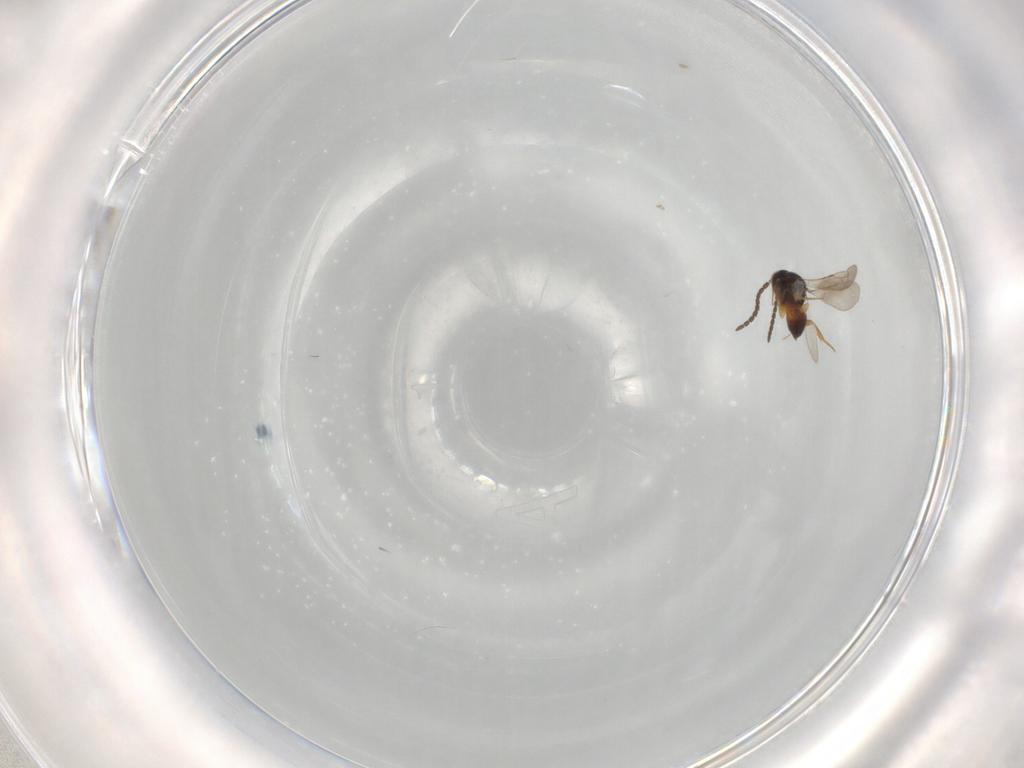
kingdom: Animalia
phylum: Arthropoda
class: Insecta
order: Hymenoptera
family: Ceraphronidae
